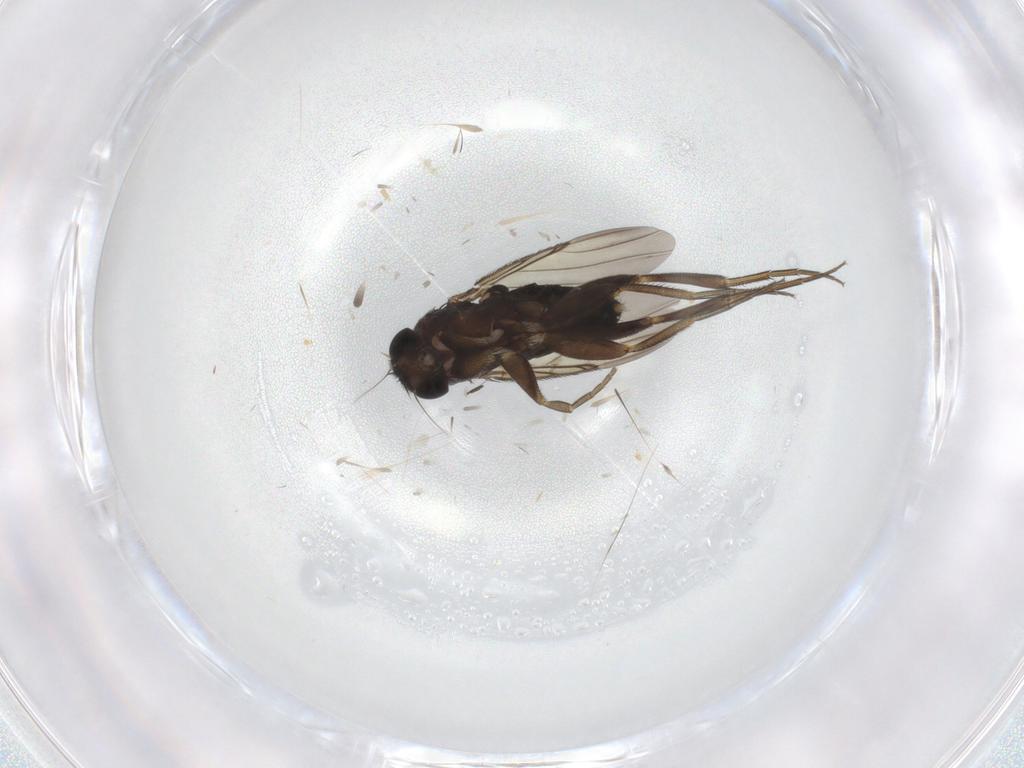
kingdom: Animalia
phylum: Arthropoda
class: Insecta
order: Diptera
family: Cecidomyiidae
